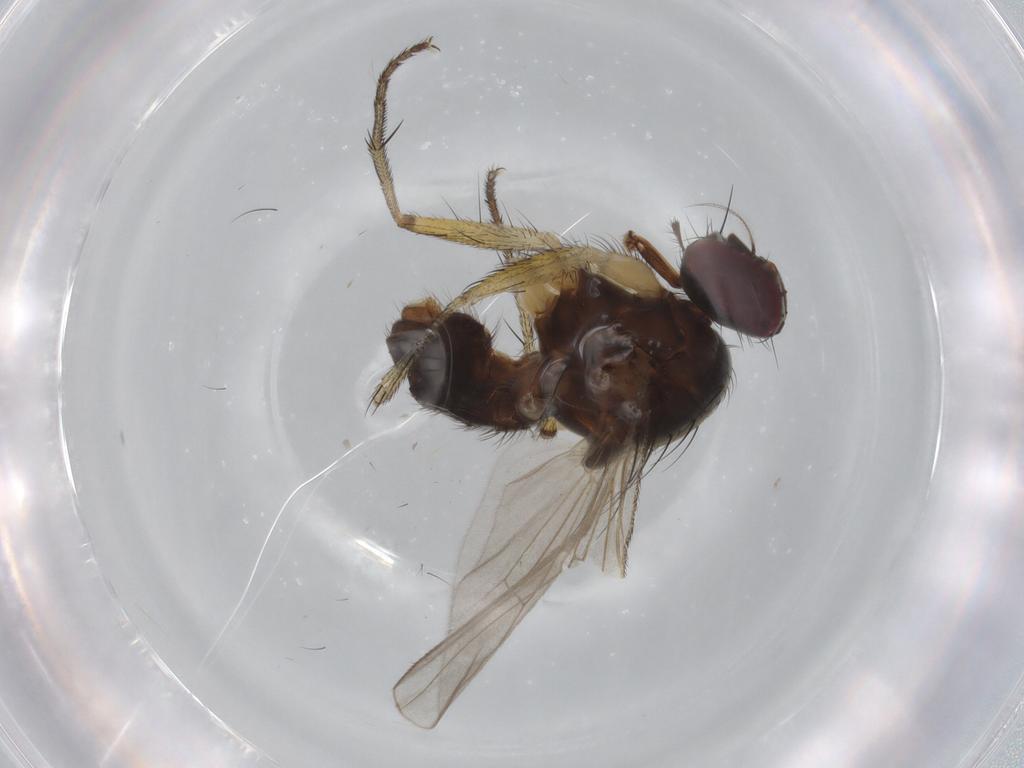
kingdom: Animalia
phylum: Arthropoda
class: Insecta
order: Diptera
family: Muscidae
